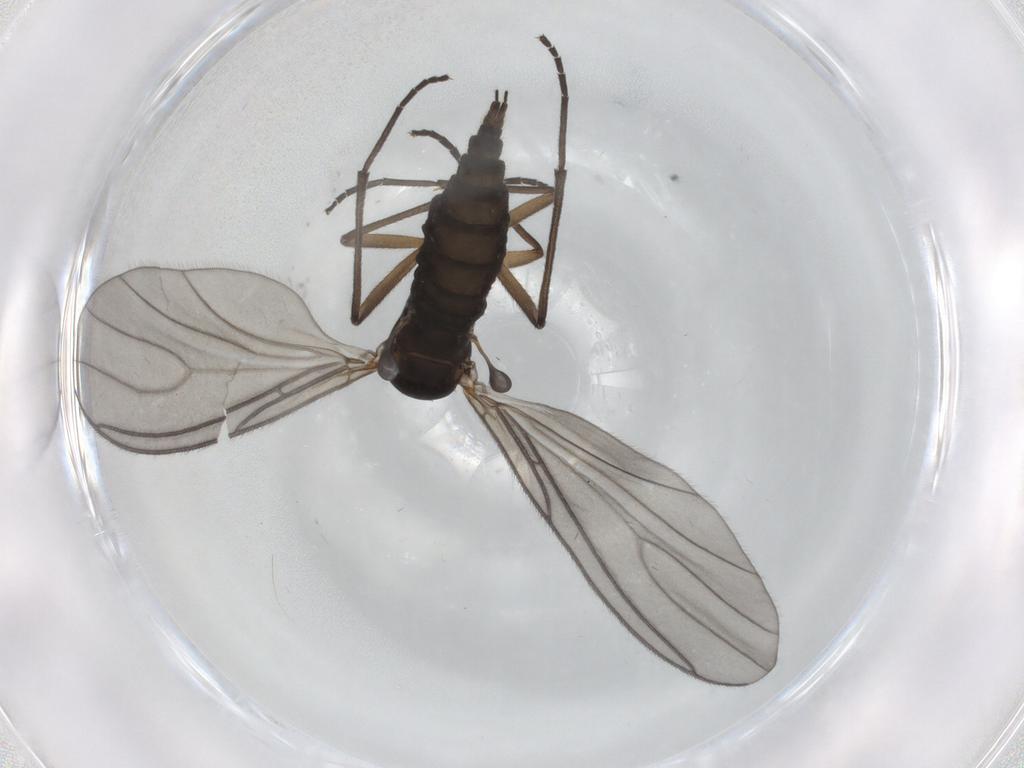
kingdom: Animalia
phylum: Arthropoda
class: Insecta
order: Diptera
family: Sciaridae
